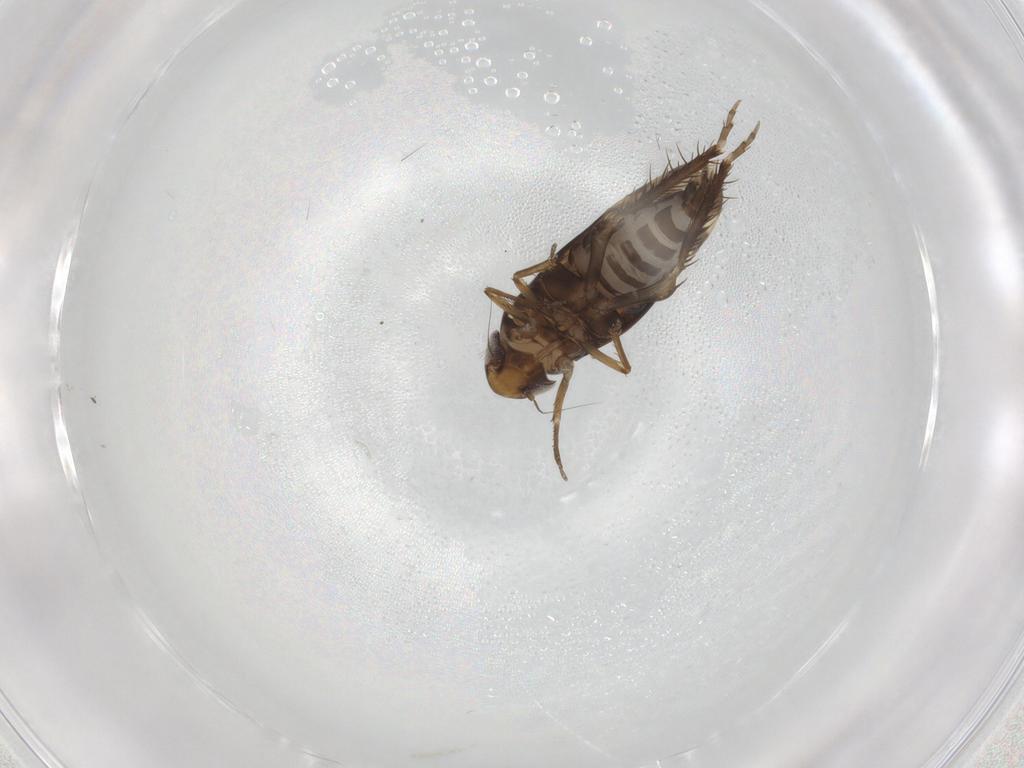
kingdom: Animalia
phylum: Arthropoda
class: Insecta
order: Hemiptera
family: Cicadellidae
